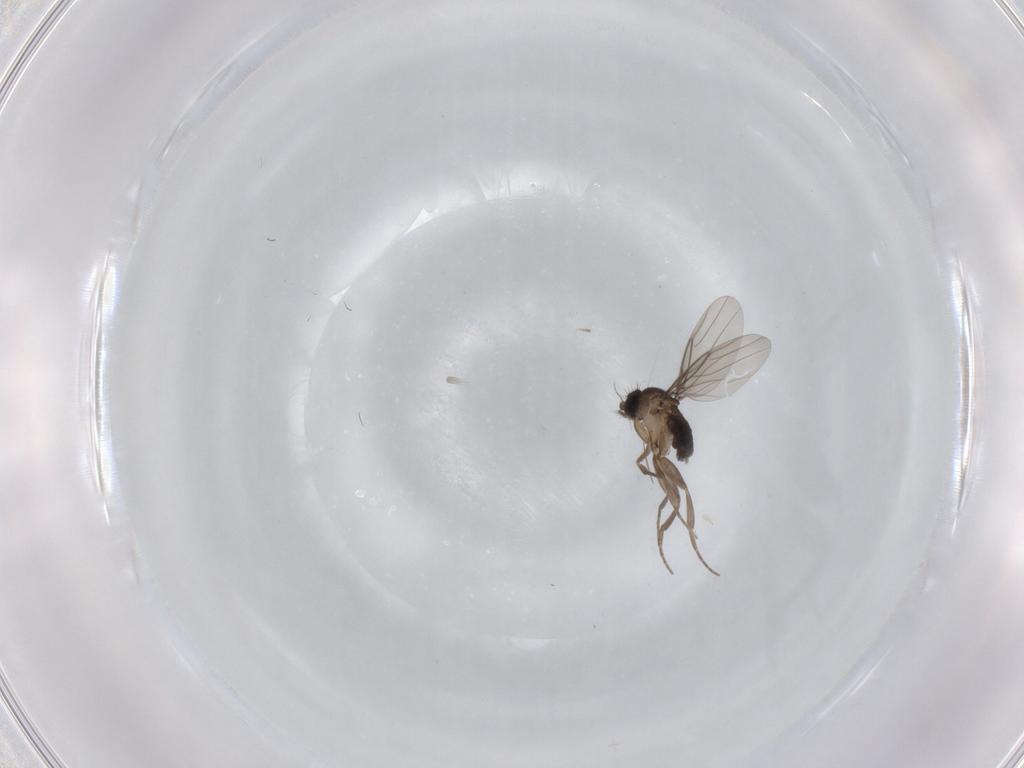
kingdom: Animalia
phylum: Arthropoda
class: Insecta
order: Diptera
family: Phoridae
